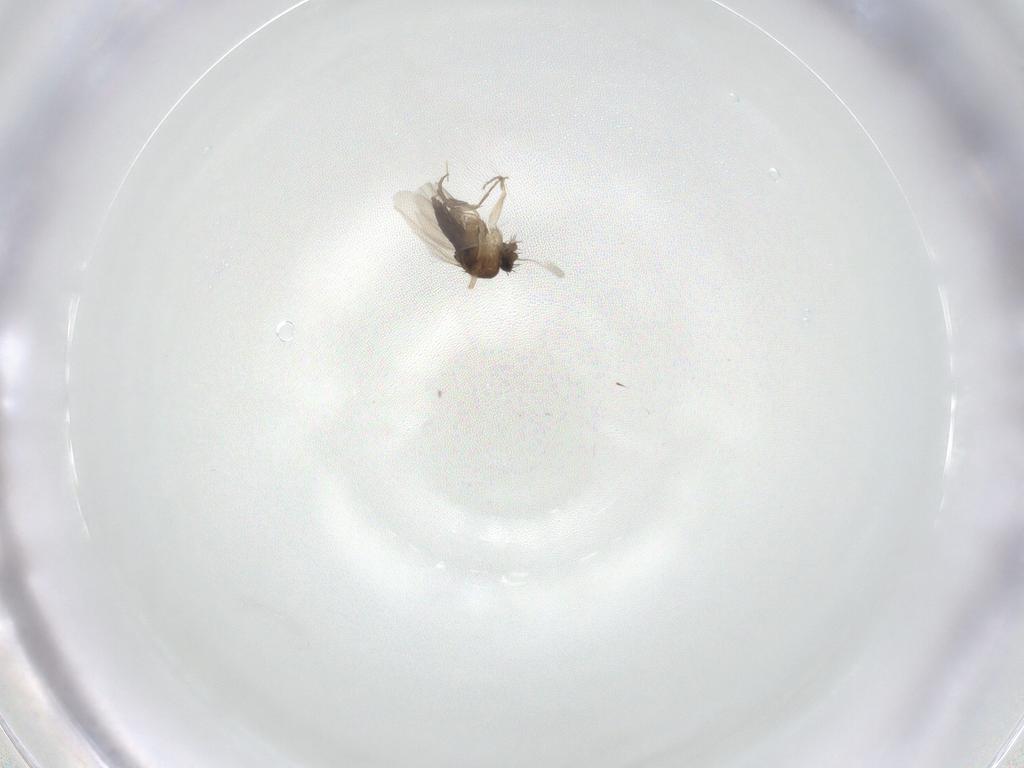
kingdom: Animalia
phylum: Arthropoda
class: Insecta
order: Diptera
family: Phoridae
